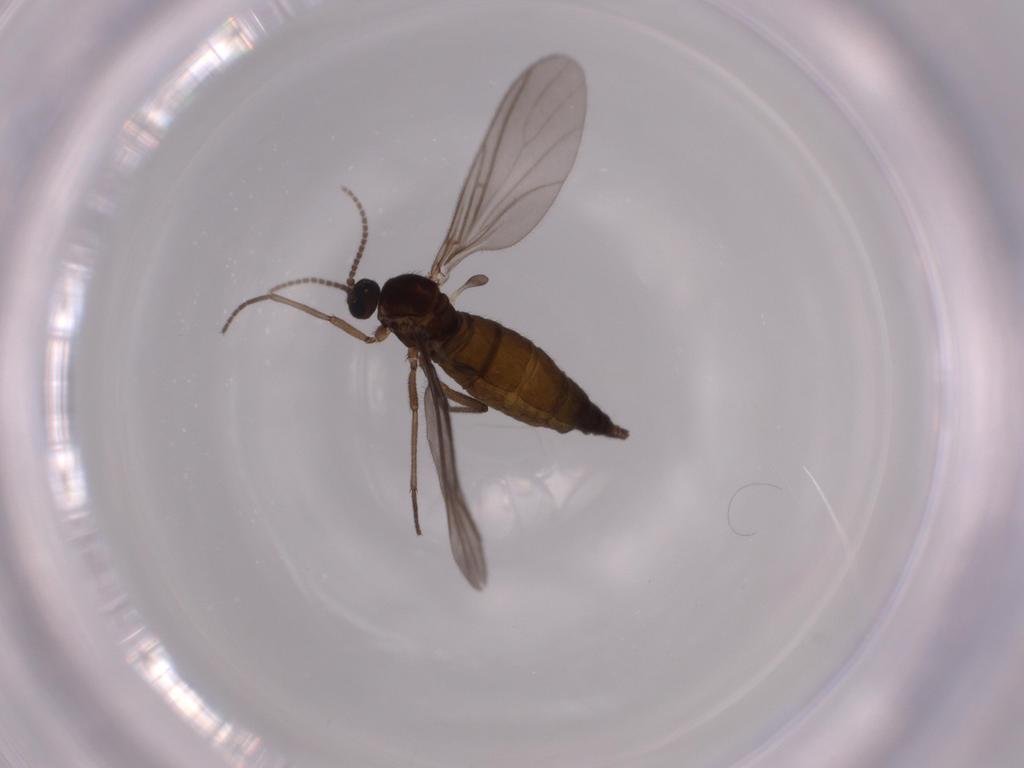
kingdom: Animalia
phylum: Arthropoda
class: Insecta
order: Diptera
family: Sciaridae
